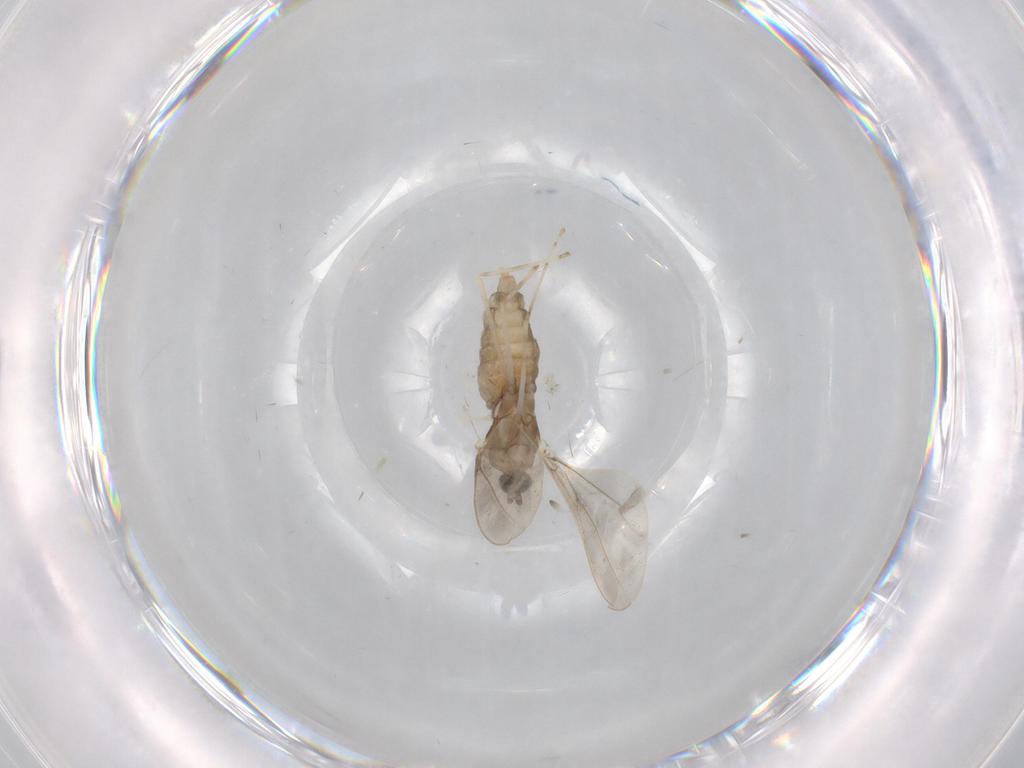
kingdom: Animalia
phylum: Arthropoda
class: Insecta
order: Diptera
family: Cecidomyiidae
